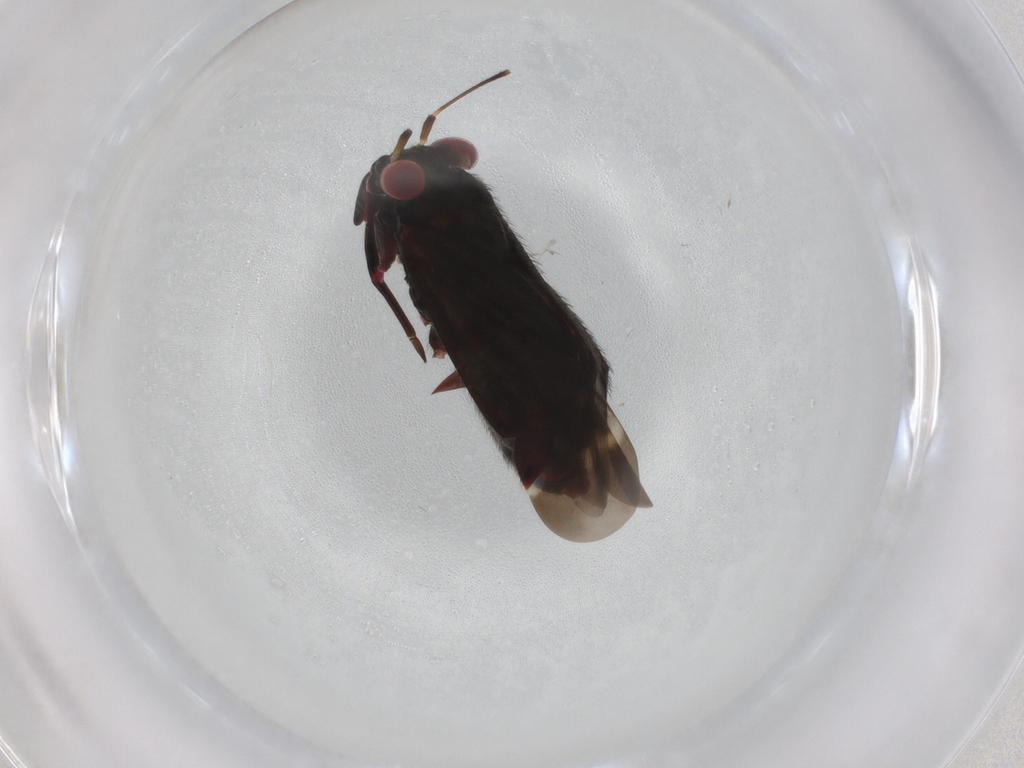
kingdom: Animalia
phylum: Arthropoda
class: Insecta
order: Hemiptera
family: Miridae
